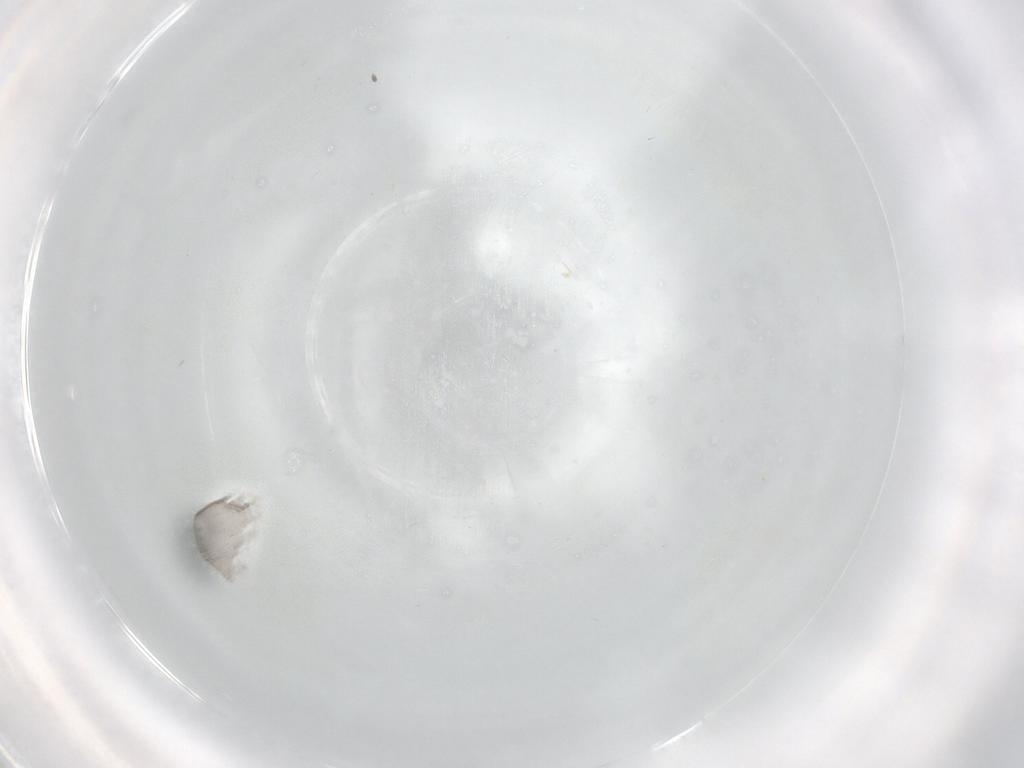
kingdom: Animalia
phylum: Arthropoda
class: Insecta
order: Diptera
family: Sciaridae
